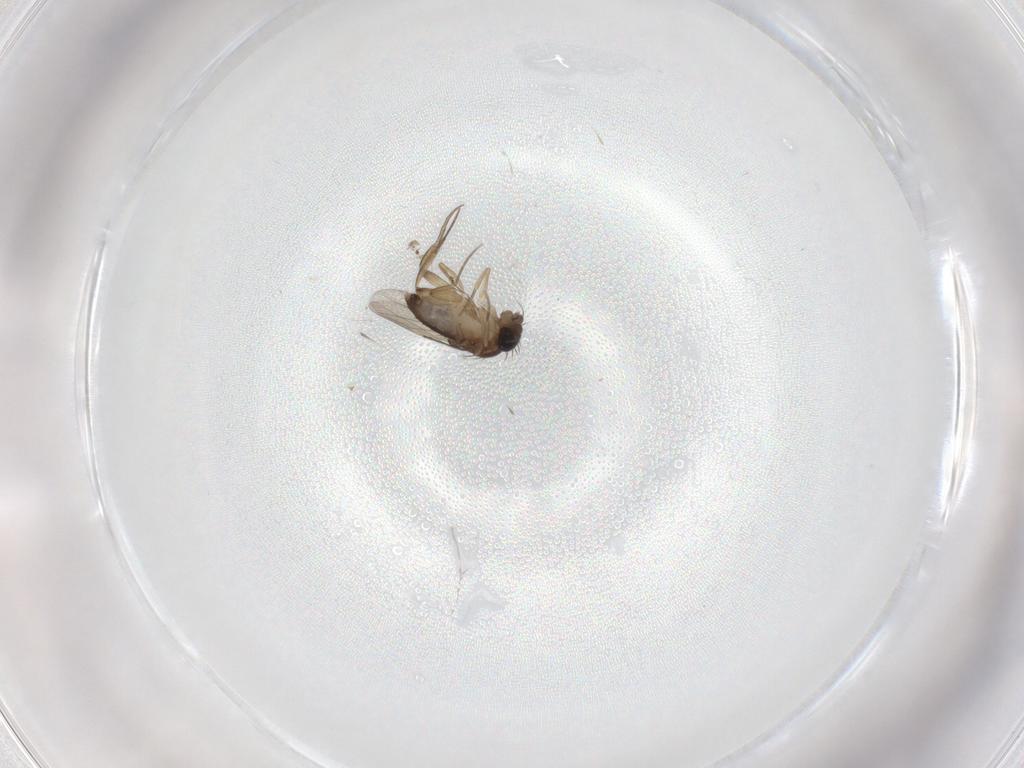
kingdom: Animalia
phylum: Arthropoda
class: Insecta
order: Diptera
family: Phoridae
